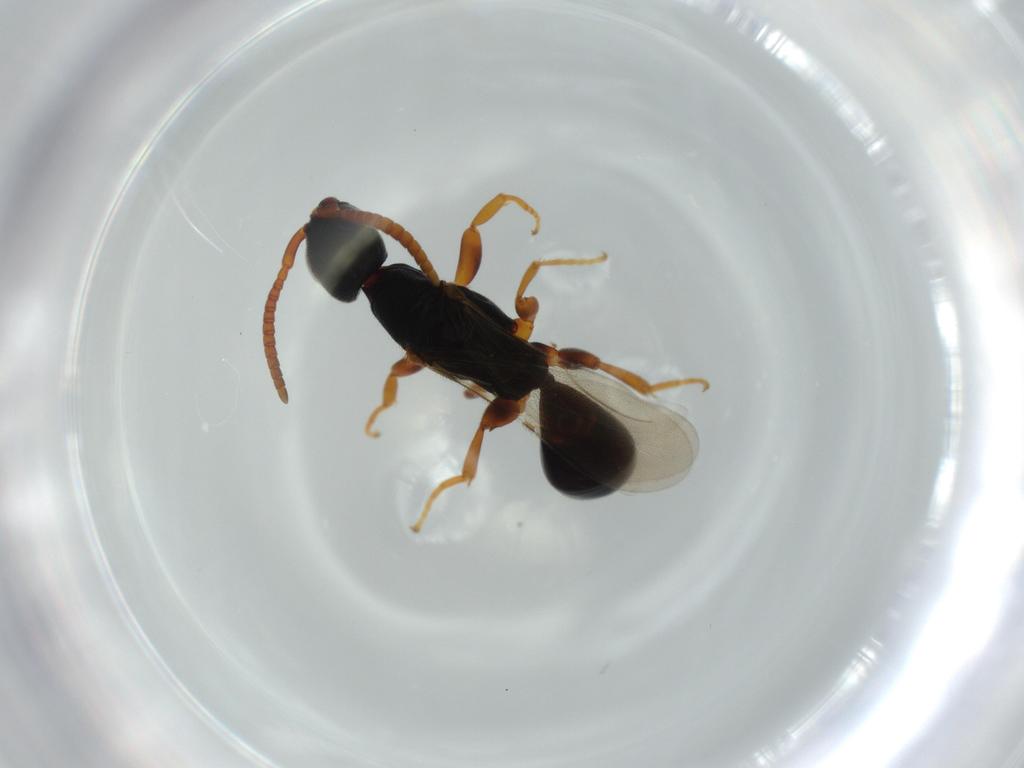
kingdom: Animalia
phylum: Arthropoda
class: Insecta
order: Hymenoptera
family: Bethylidae
